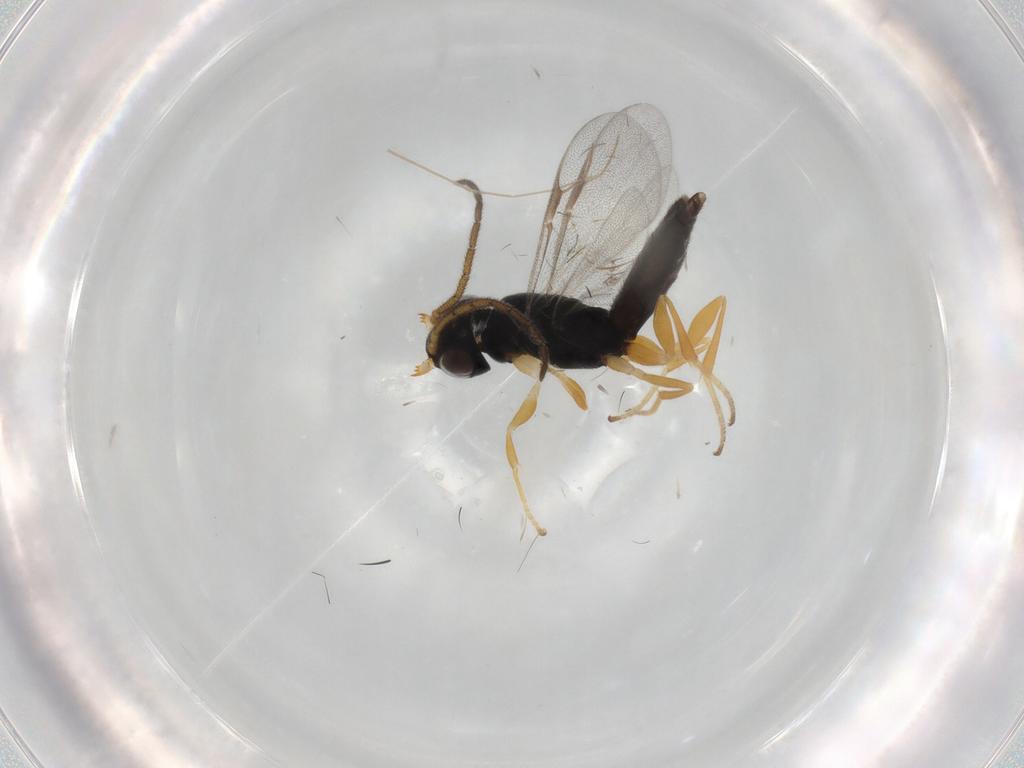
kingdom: Animalia
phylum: Arthropoda
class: Insecta
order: Hymenoptera
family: Dryinidae
